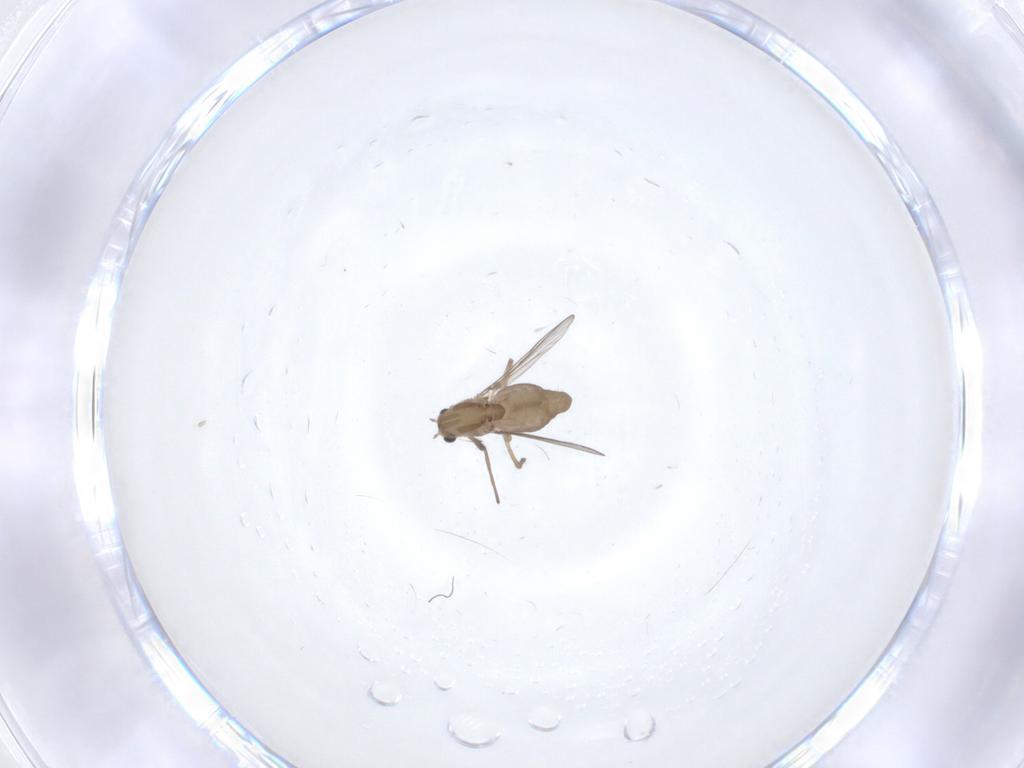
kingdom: Animalia
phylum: Arthropoda
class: Insecta
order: Diptera
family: Chironomidae
